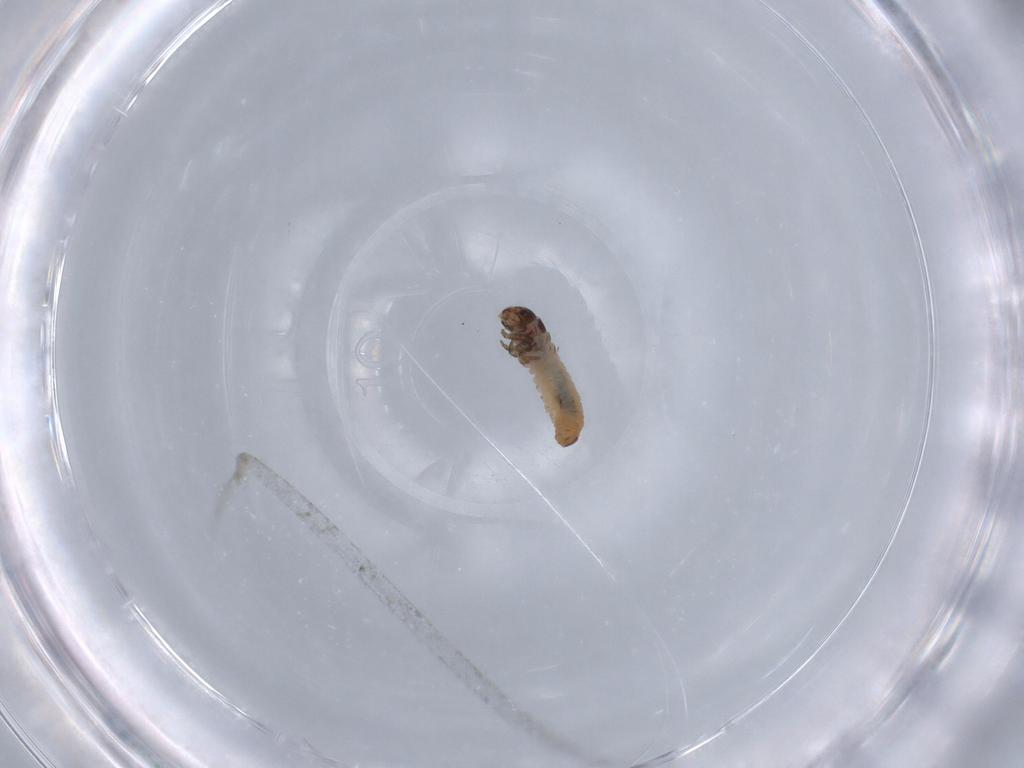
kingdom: Animalia
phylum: Arthropoda
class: Insecta
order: Lepidoptera
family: Psychidae
